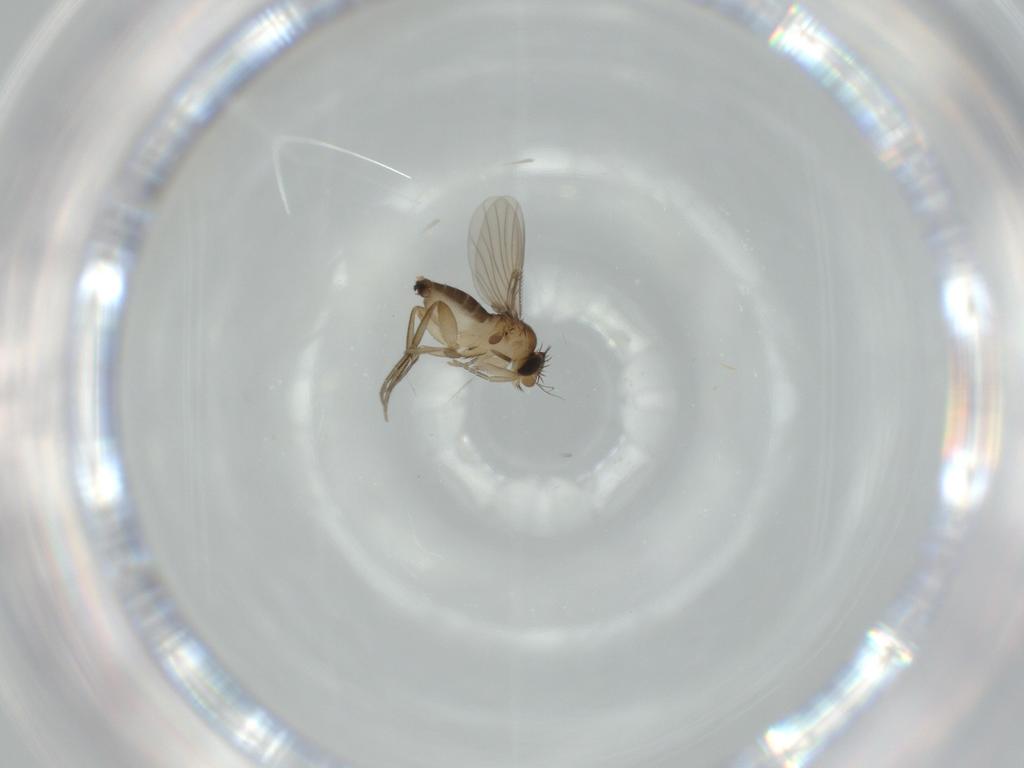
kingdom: Animalia
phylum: Arthropoda
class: Insecta
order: Diptera
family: Phoridae
